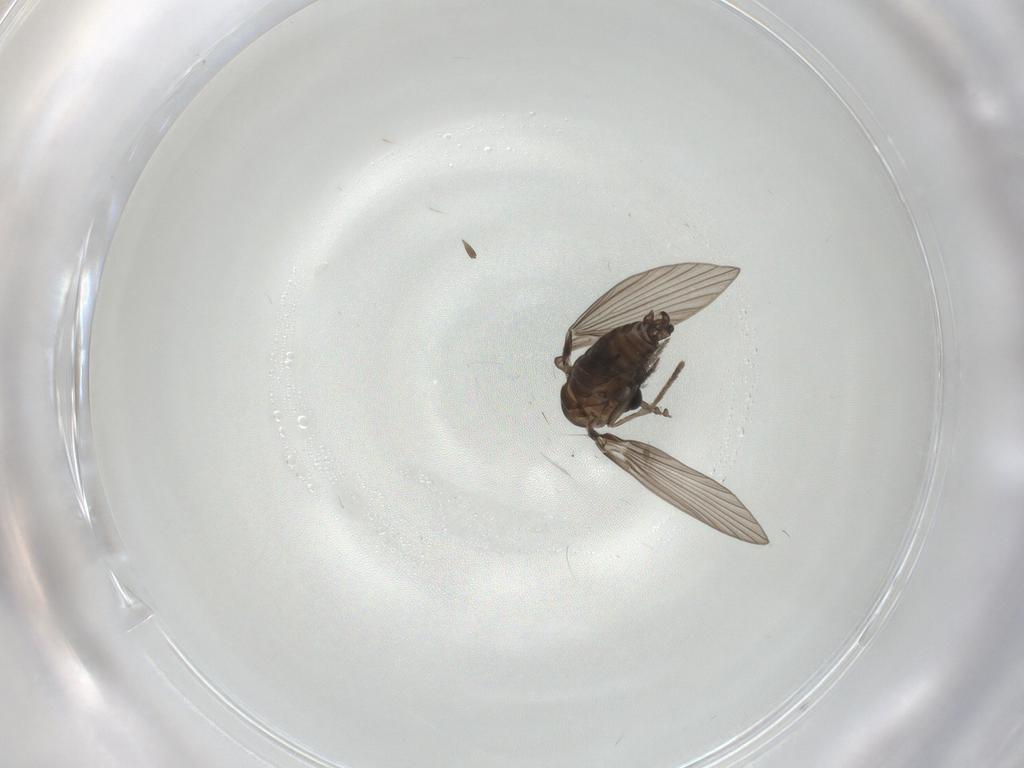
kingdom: Animalia
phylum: Arthropoda
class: Insecta
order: Diptera
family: Psychodidae
